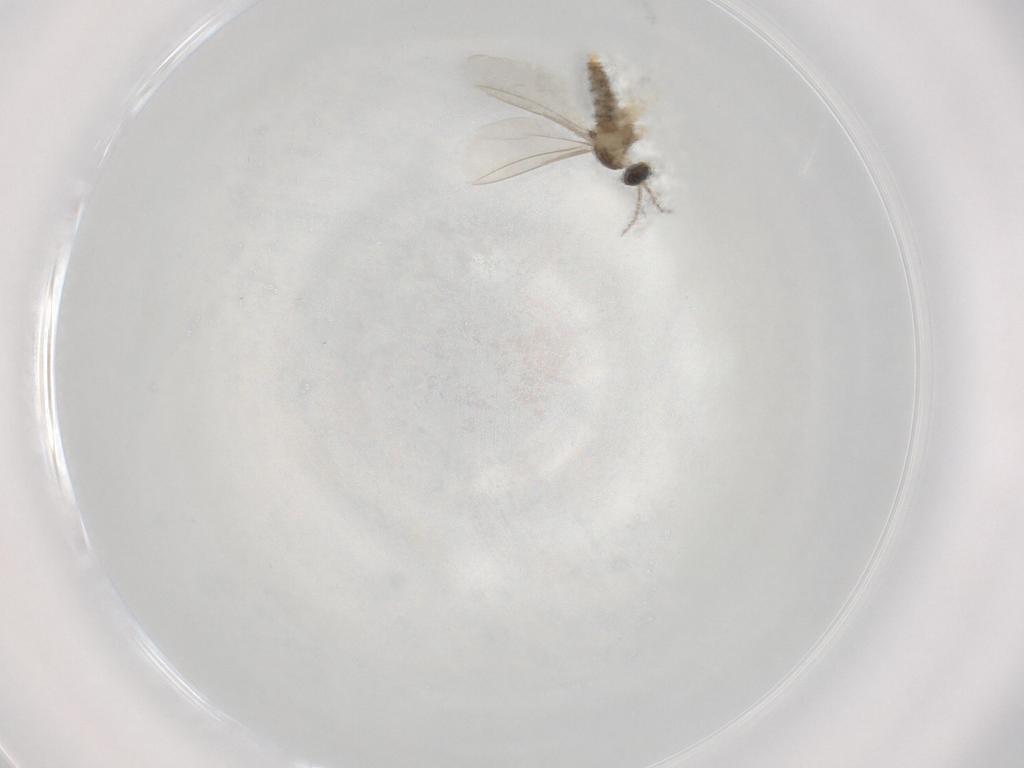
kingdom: Animalia
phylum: Arthropoda
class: Insecta
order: Diptera
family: Cecidomyiidae
